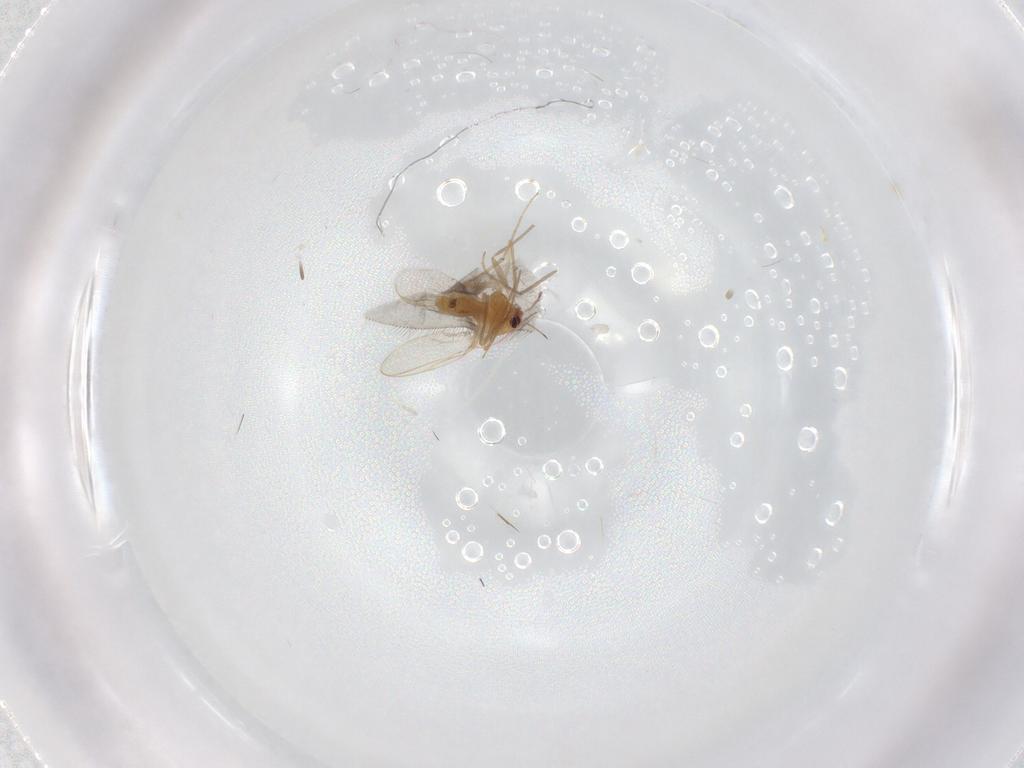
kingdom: Animalia
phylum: Arthropoda
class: Insecta
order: Diptera
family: Chironomidae
